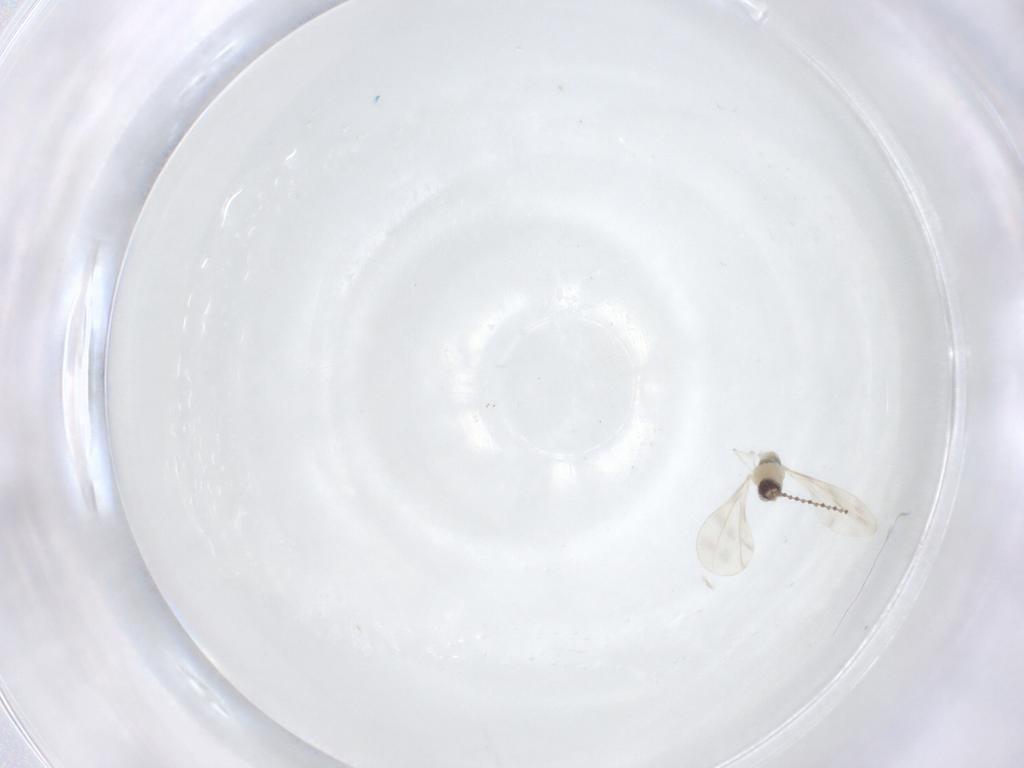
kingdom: Animalia
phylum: Arthropoda
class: Insecta
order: Diptera
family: Cecidomyiidae
